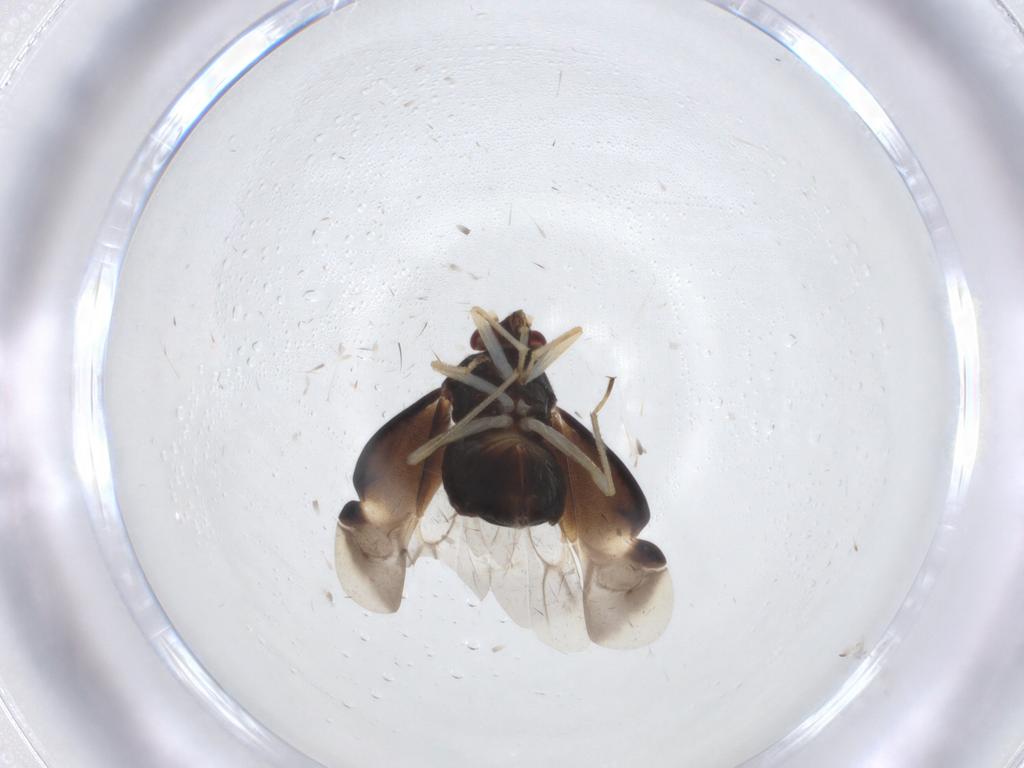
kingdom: Animalia
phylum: Arthropoda
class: Insecta
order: Hemiptera
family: Miridae
